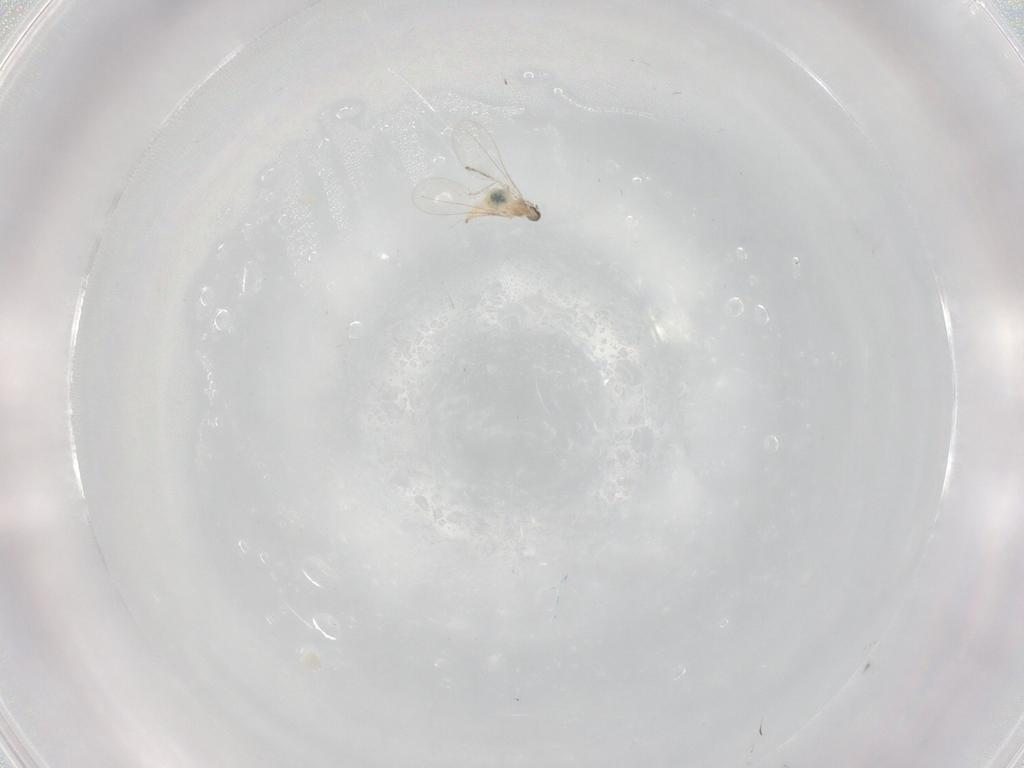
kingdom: Animalia
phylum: Arthropoda
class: Insecta
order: Diptera
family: Cecidomyiidae
